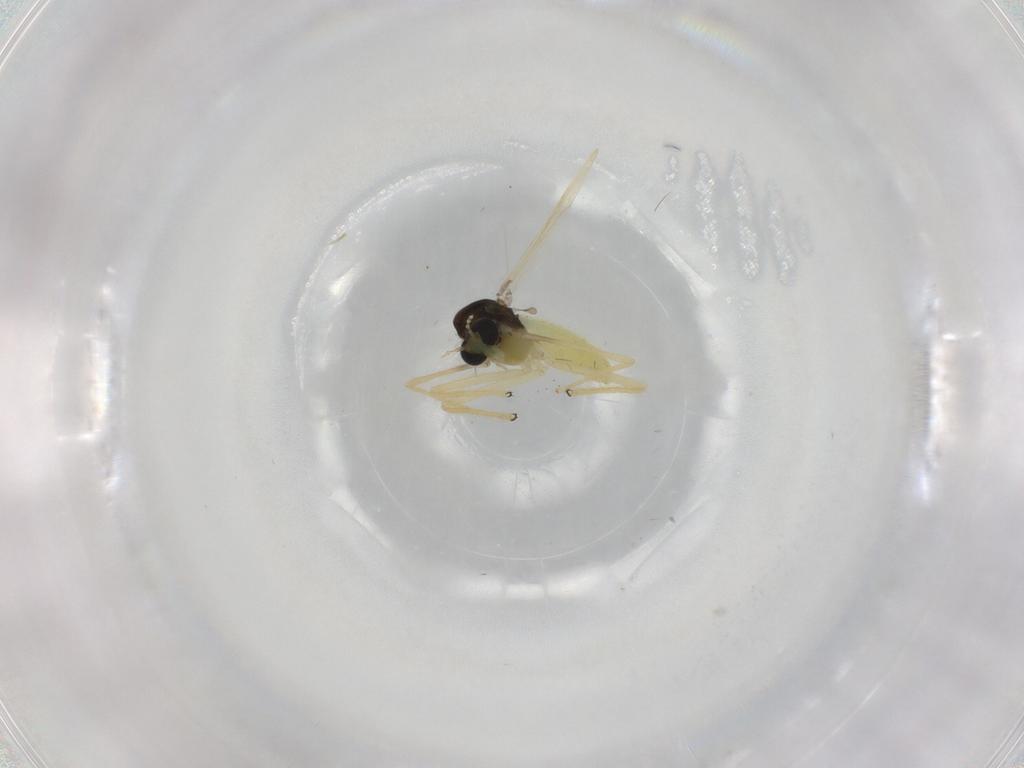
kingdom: Animalia
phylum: Arthropoda
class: Insecta
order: Diptera
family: Chironomidae
